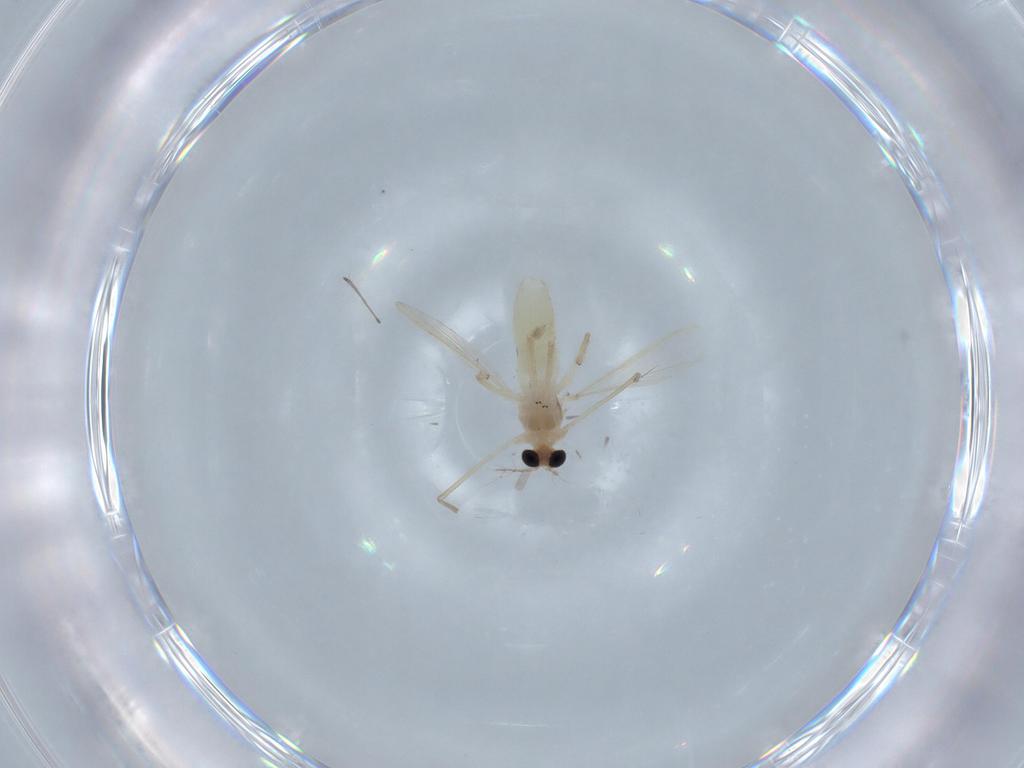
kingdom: Animalia
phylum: Arthropoda
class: Insecta
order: Diptera
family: Chironomidae
